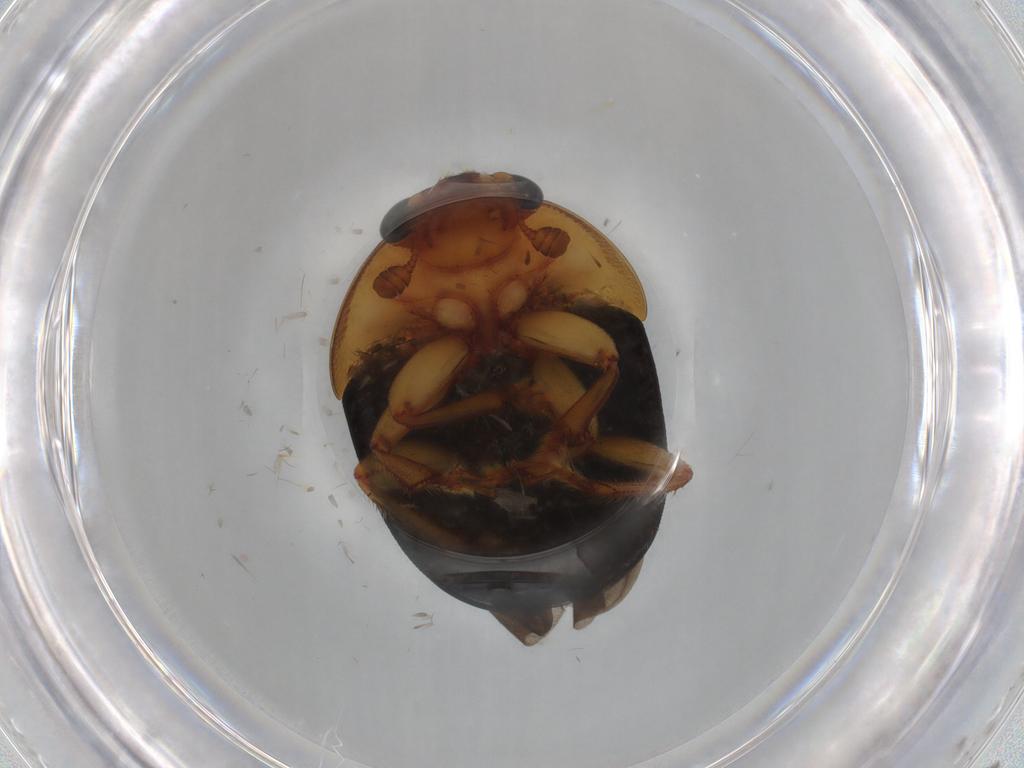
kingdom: Animalia
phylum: Arthropoda
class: Insecta
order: Coleoptera
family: Nitidulidae
